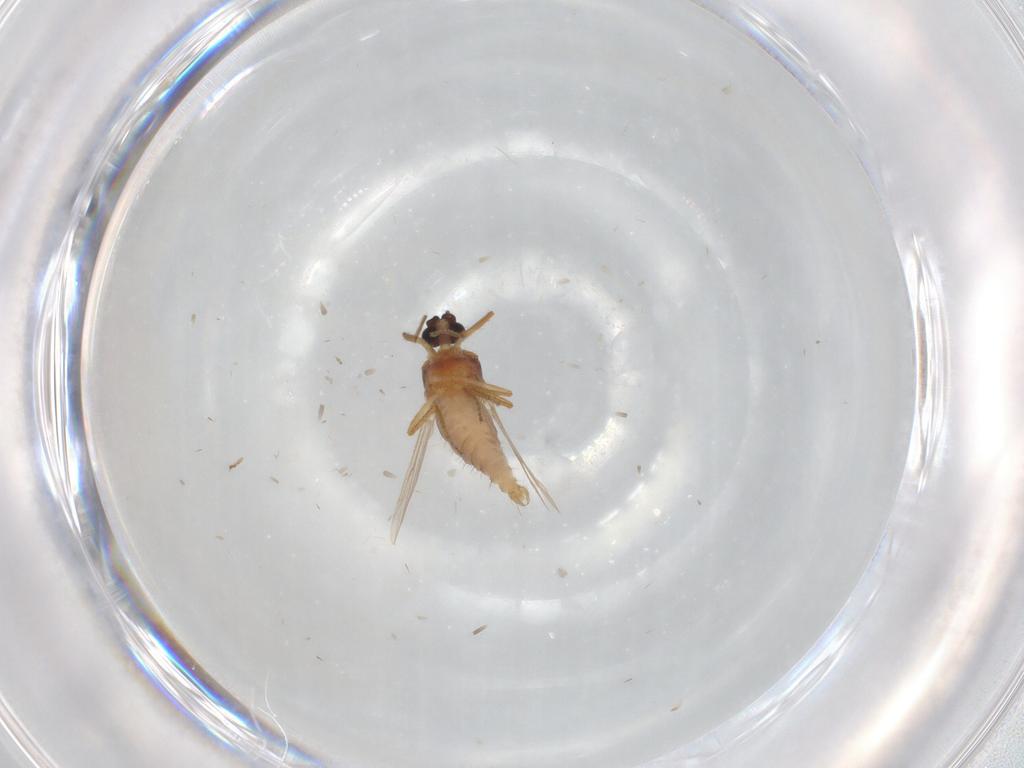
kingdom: Animalia
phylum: Arthropoda
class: Insecta
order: Diptera
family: Tabanidae
